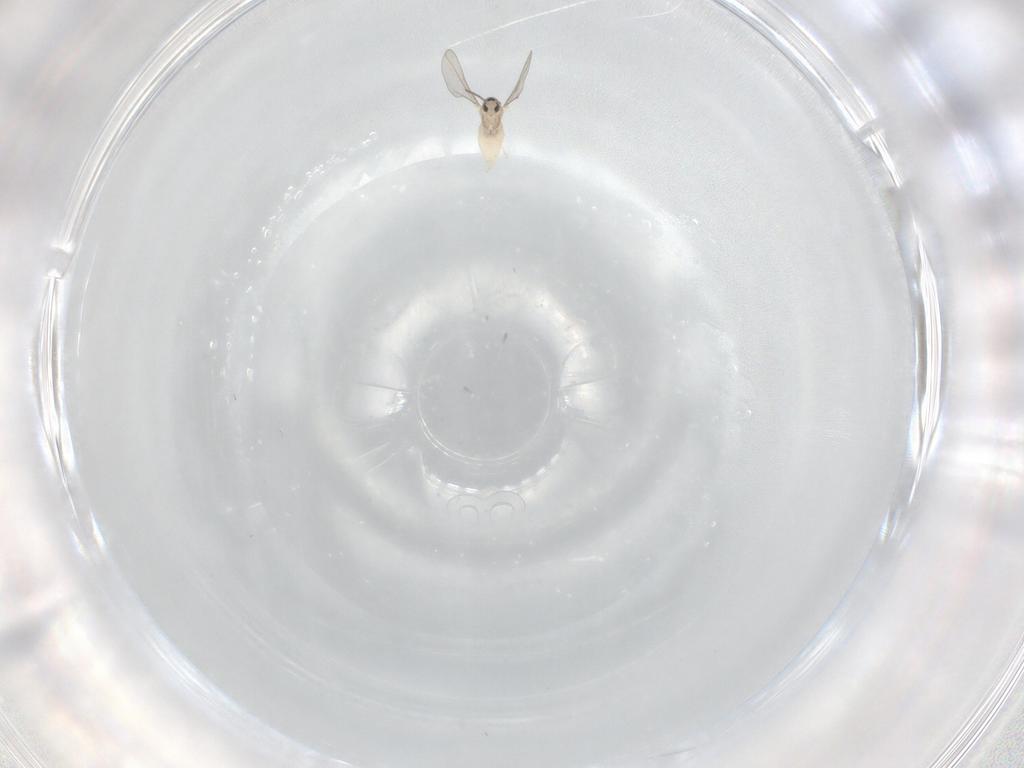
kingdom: Animalia
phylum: Arthropoda
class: Insecta
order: Diptera
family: Cecidomyiidae
